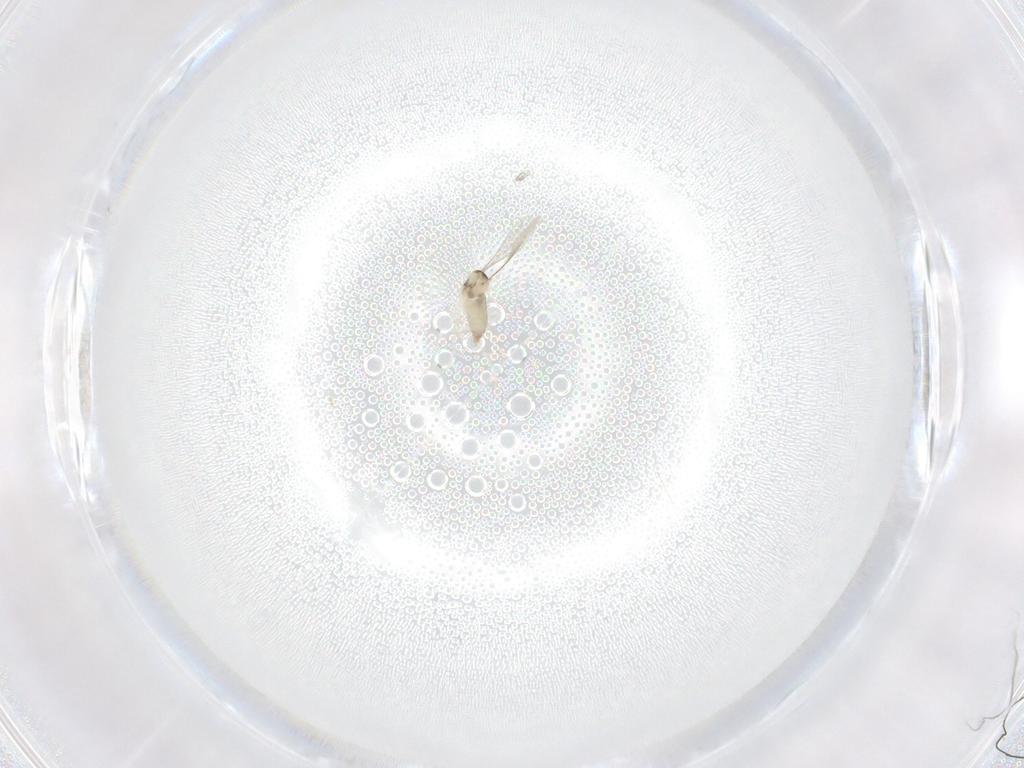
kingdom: Animalia
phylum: Arthropoda
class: Insecta
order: Diptera
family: Chironomidae
